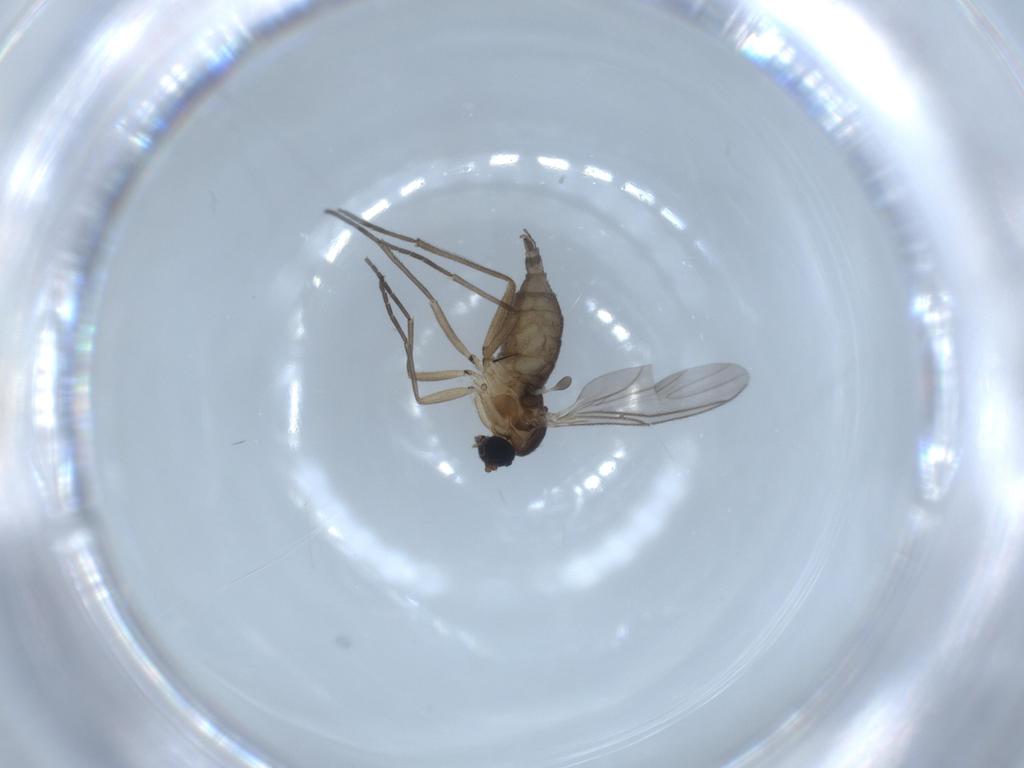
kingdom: Animalia
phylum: Arthropoda
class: Insecta
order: Diptera
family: Sciaridae
